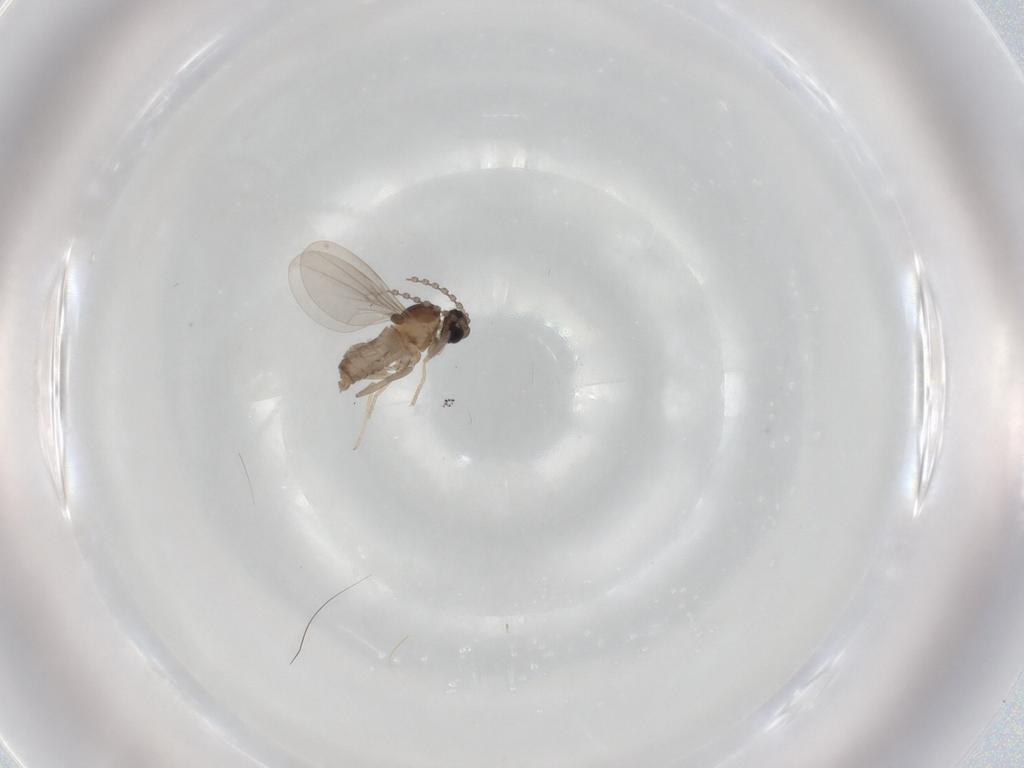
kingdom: Animalia
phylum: Arthropoda
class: Insecta
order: Diptera
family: Cecidomyiidae
